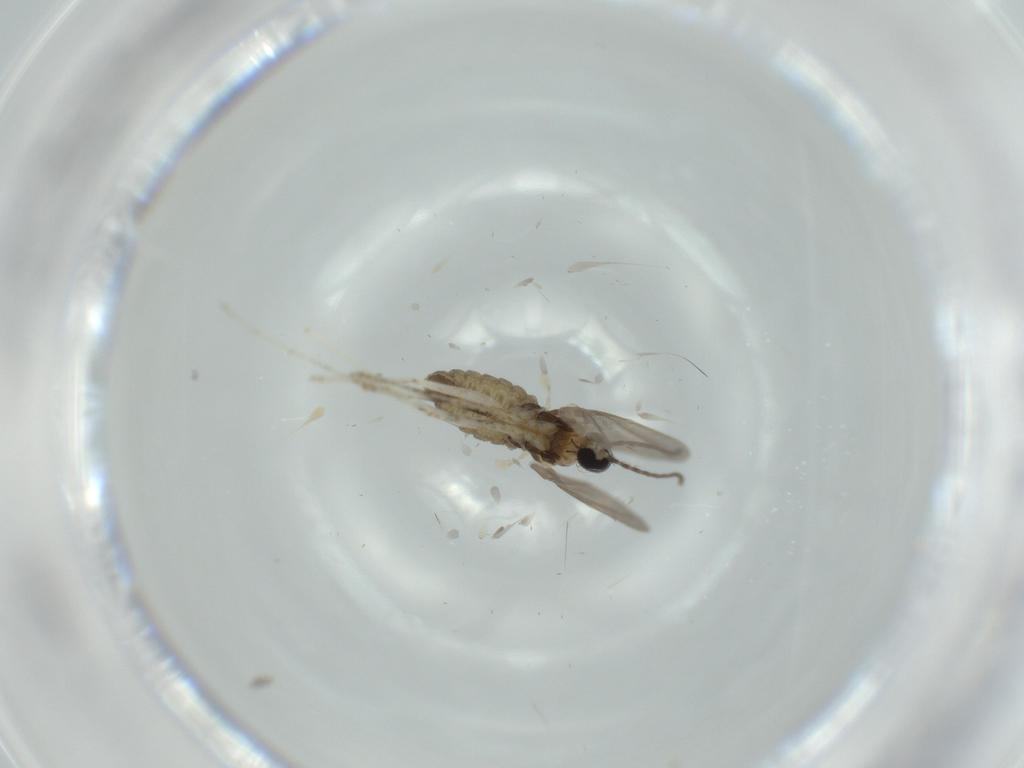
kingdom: Animalia
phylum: Arthropoda
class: Insecta
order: Diptera
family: Cecidomyiidae
